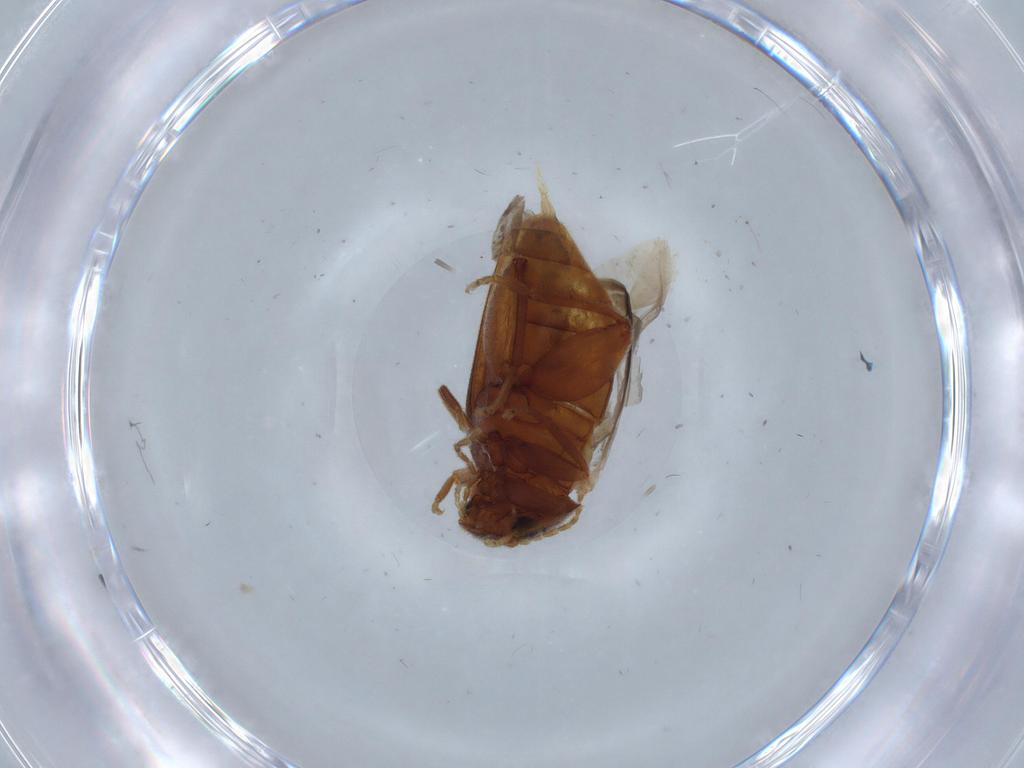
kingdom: Animalia
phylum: Arthropoda
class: Insecta
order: Coleoptera
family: Scirtidae
